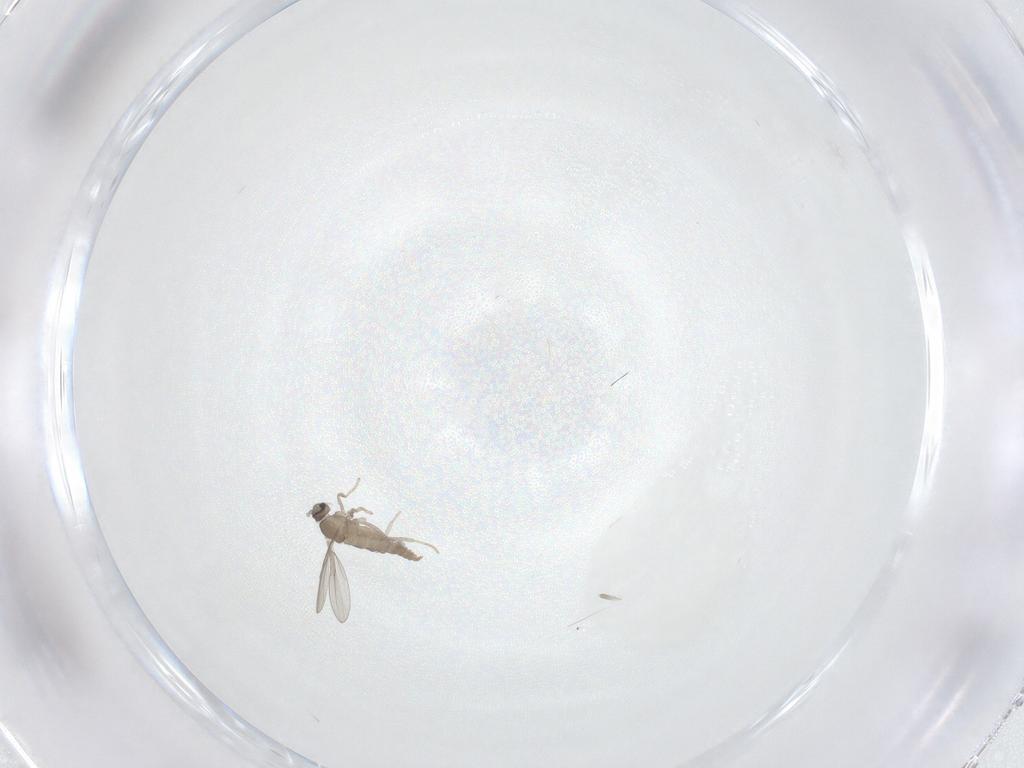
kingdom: Animalia
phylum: Arthropoda
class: Insecta
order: Diptera
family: Cecidomyiidae
